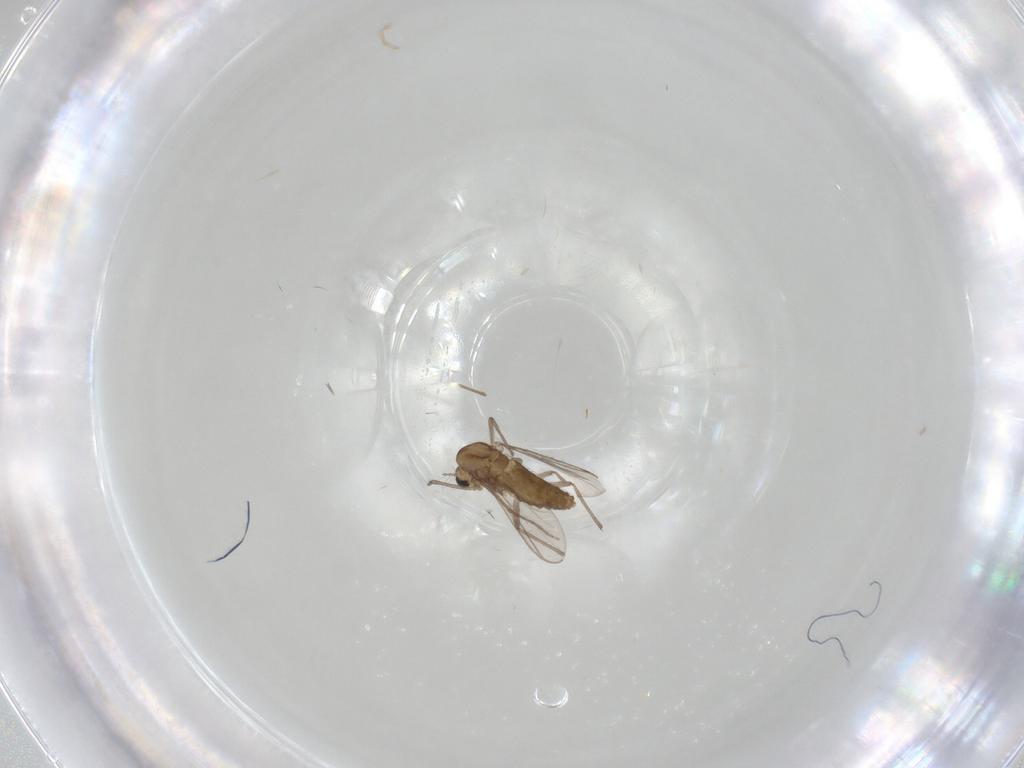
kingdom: Animalia
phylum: Arthropoda
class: Insecta
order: Diptera
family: Chironomidae
